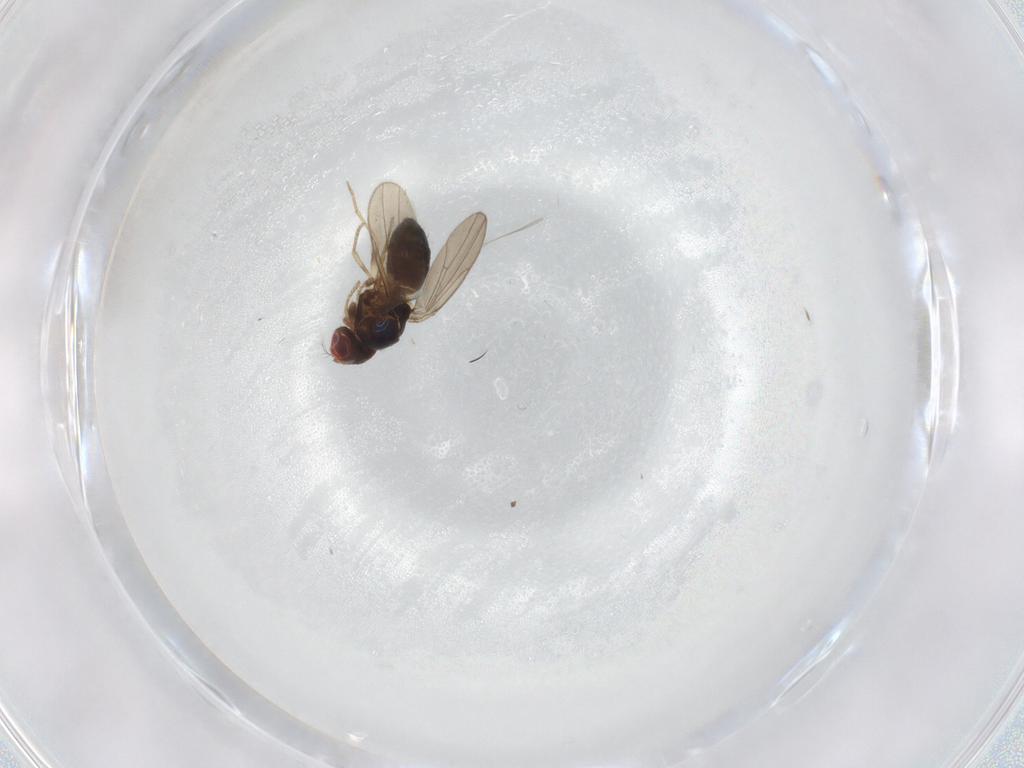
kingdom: Animalia
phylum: Arthropoda
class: Insecta
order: Diptera
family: Drosophilidae
